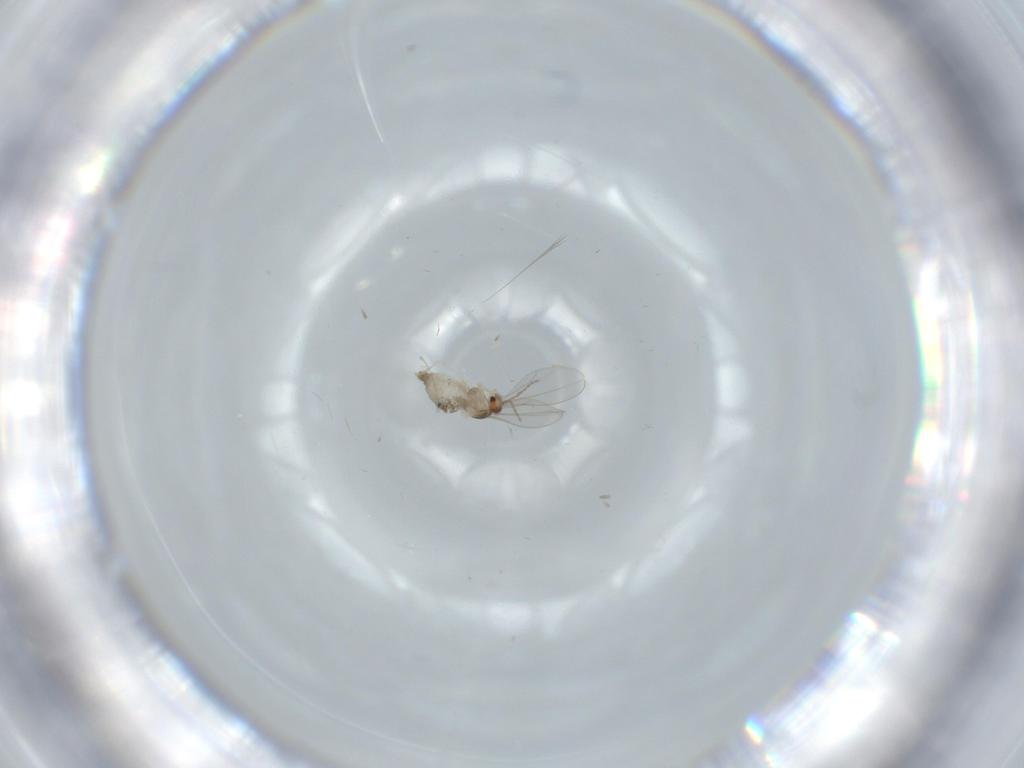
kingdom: Animalia
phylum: Arthropoda
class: Insecta
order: Diptera
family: Cecidomyiidae
